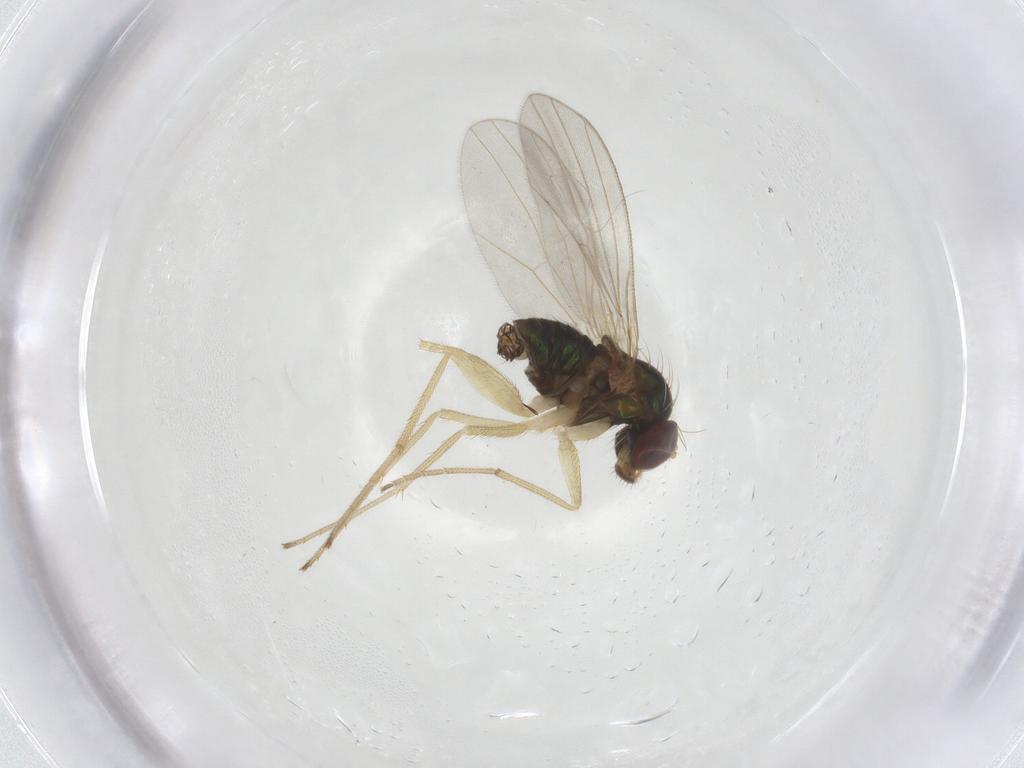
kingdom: Animalia
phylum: Arthropoda
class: Insecta
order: Diptera
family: Dolichopodidae
